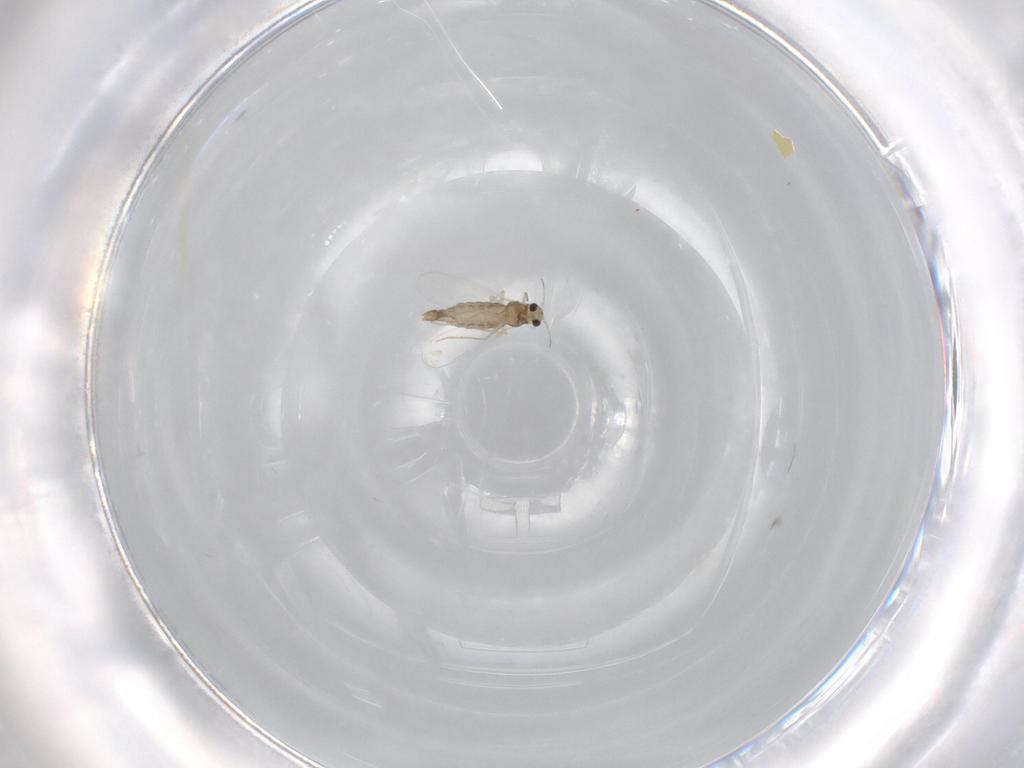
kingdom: Animalia
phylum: Arthropoda
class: Insecta
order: Diptera
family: Chironomidae
